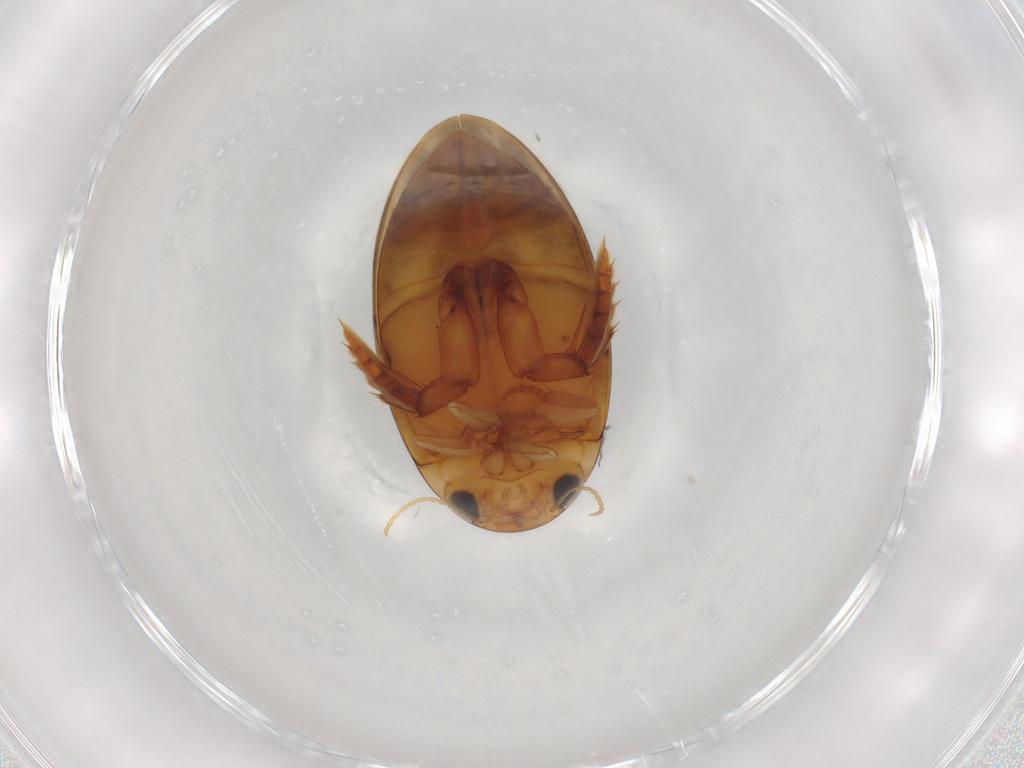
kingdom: Animalia
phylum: Arthropoda
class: Insecta
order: Coleoptera
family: Dytiscidae
